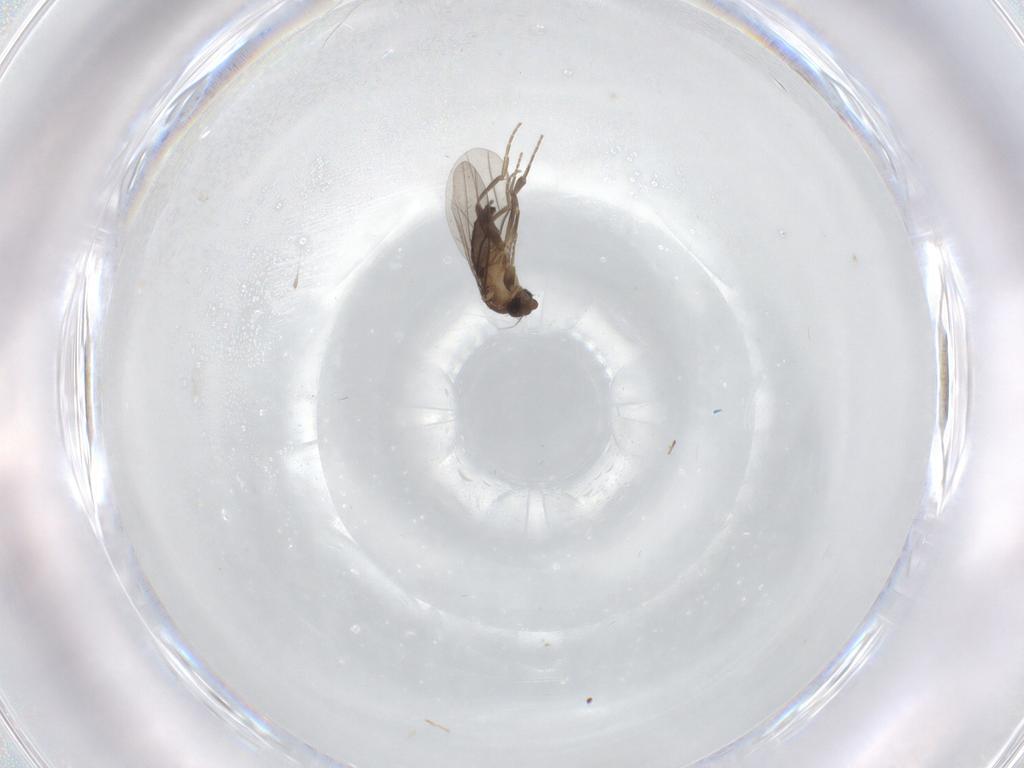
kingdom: Animalia
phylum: Arthropoda
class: Insecta
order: Diptera
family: Phoridae
